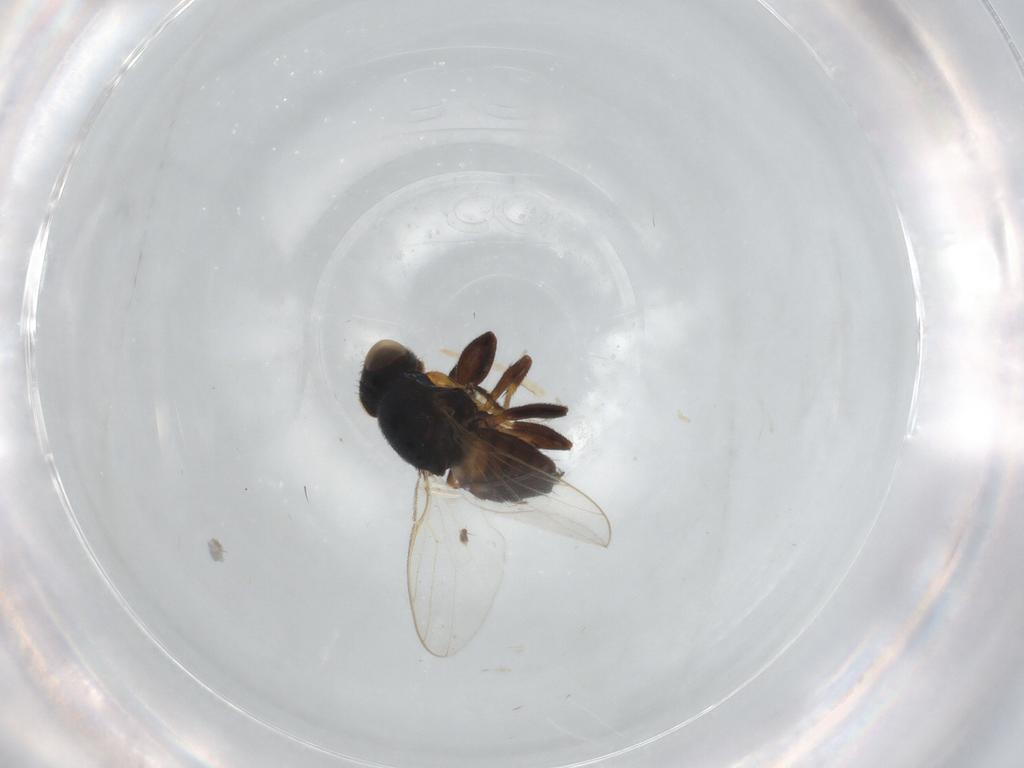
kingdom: Animalia
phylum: Arthropoda
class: Insecta
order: Diptera
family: Chloropidae
